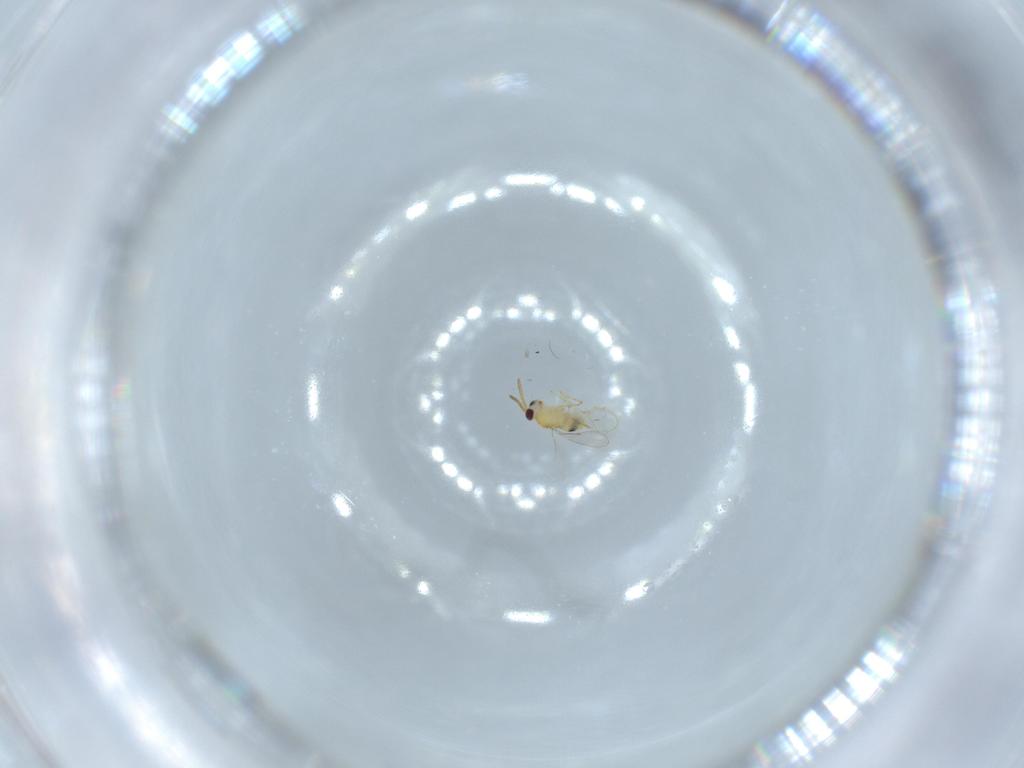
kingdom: Animalia
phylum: Arthropoda
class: Insecta
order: Hymenoptera
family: Aphelinidae
